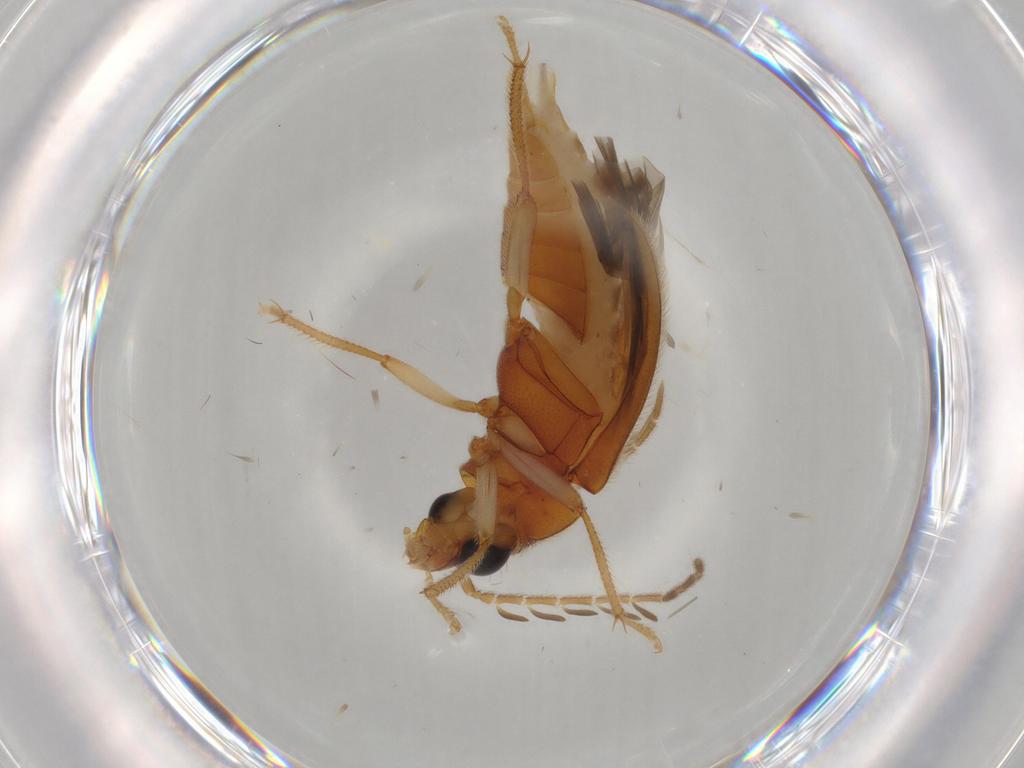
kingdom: Animalia
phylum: Arthropoda
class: Insecta
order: Coleoptera
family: Ptilodactylidae
